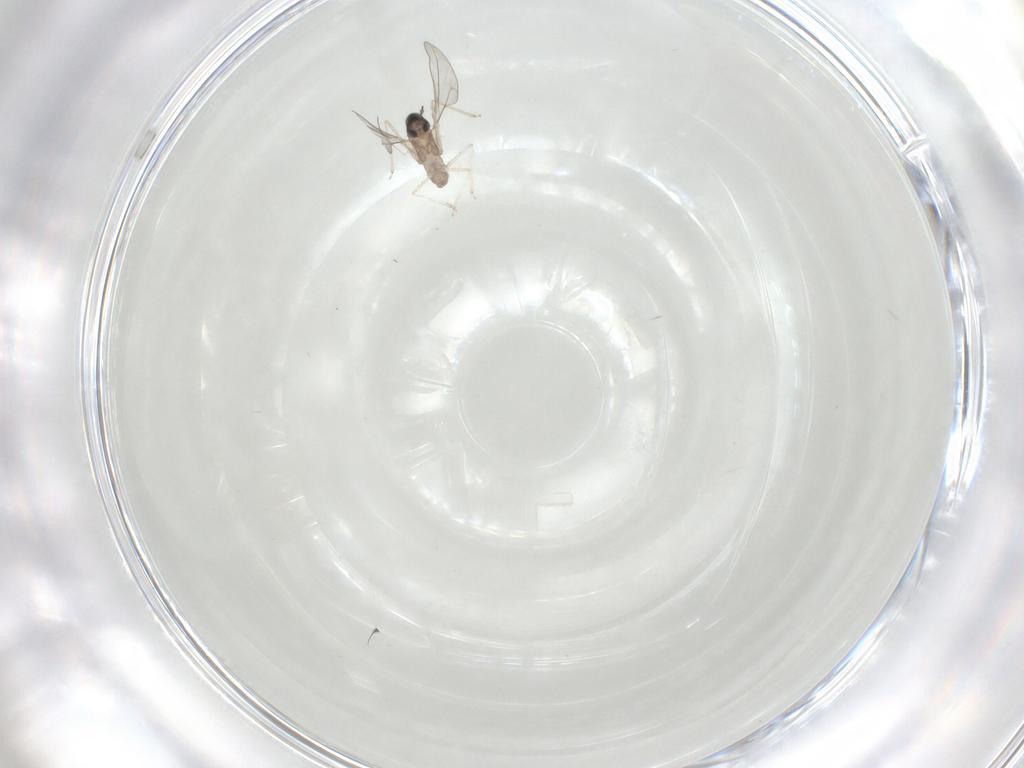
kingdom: Animalia
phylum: Arthropoda
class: Insecta
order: Diptera
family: Cecidomyiidae
